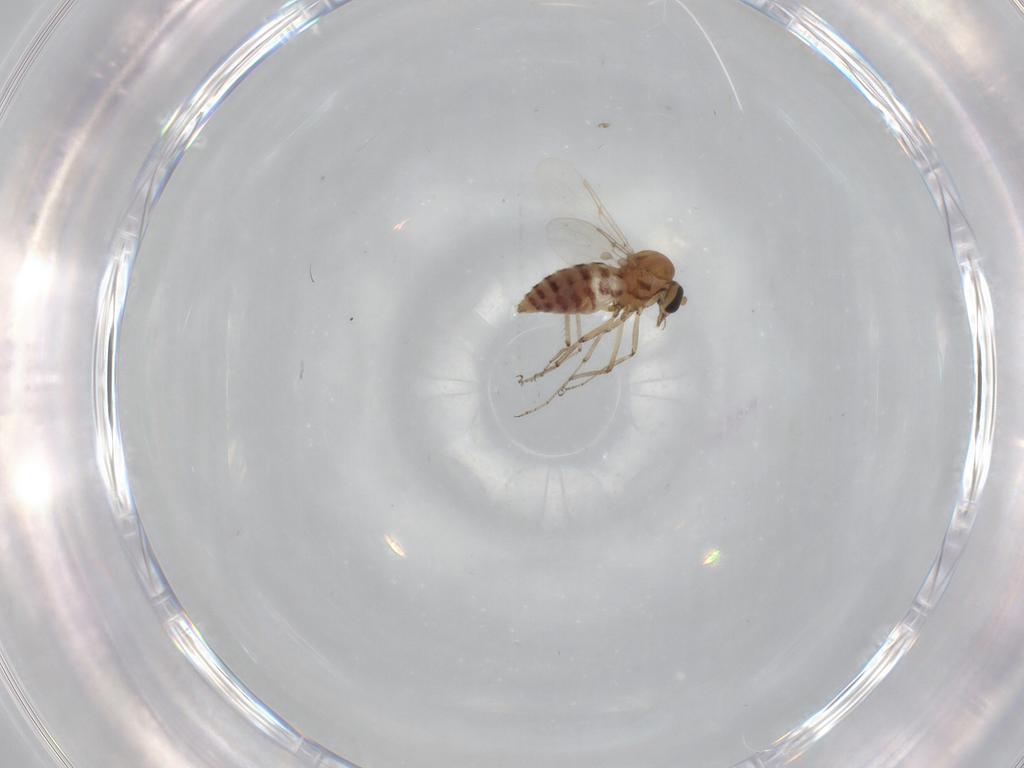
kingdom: Animalia
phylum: Arthropoda
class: Insecta
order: Diptera
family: Ceratopogonidae
